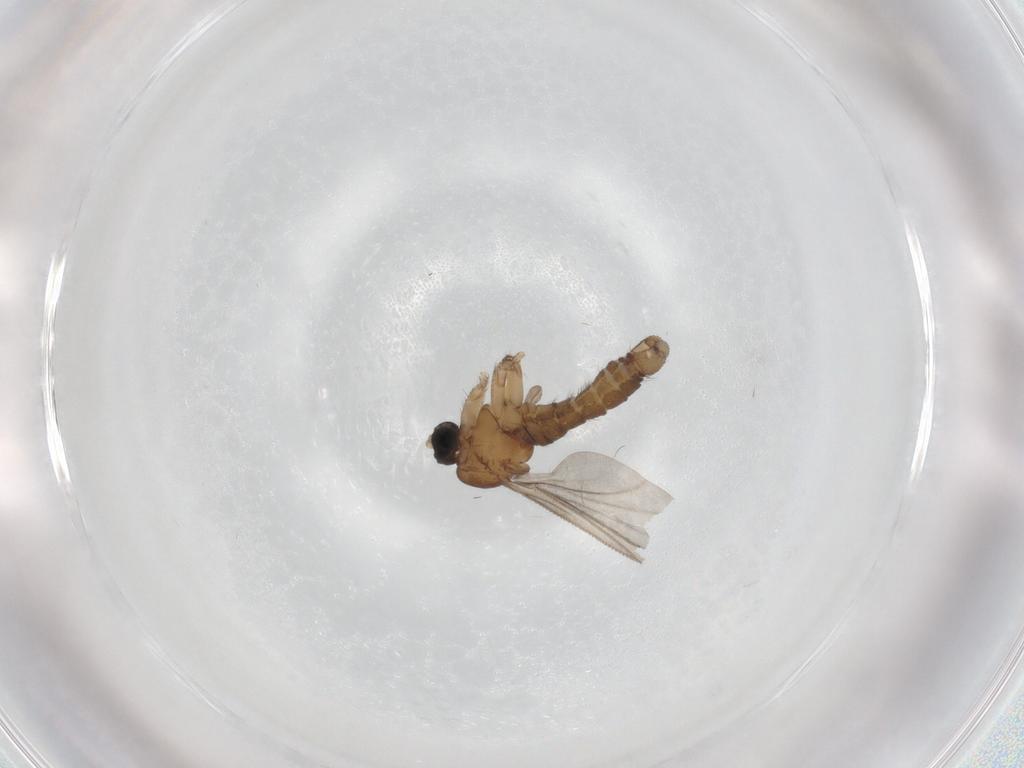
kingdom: Animalia
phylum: Arthropoda
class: Insecta
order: Diptera
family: Sciaridae
